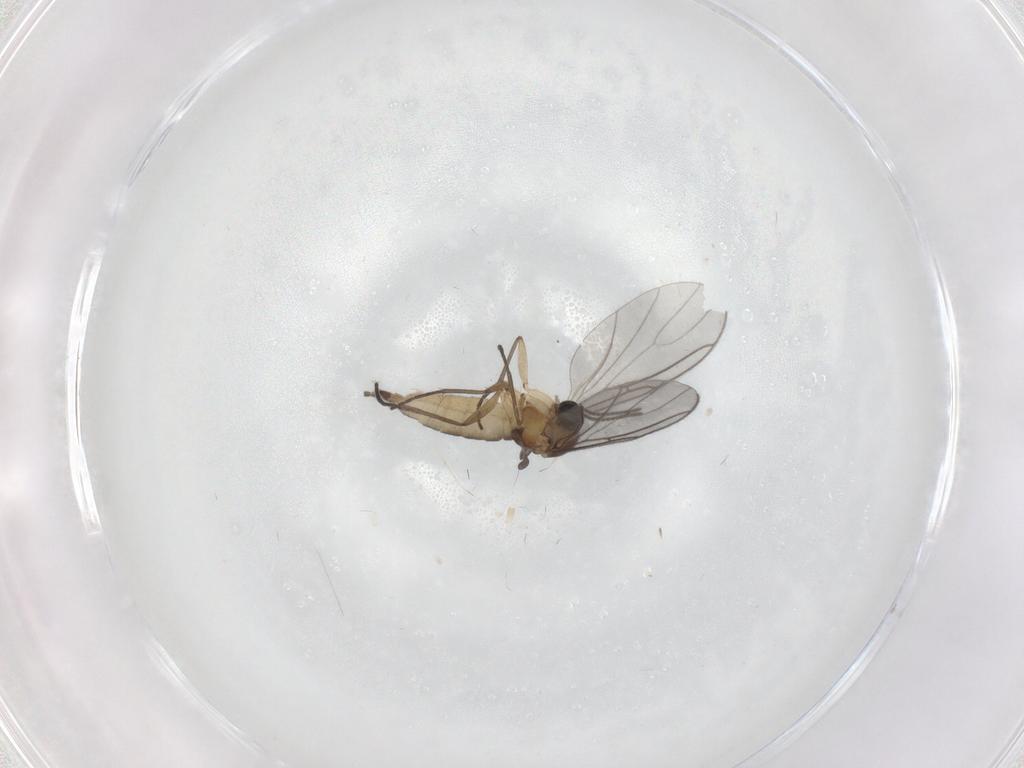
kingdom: Animalia
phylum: Arthropoda
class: Insecta
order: Diptera
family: Sciaridae
